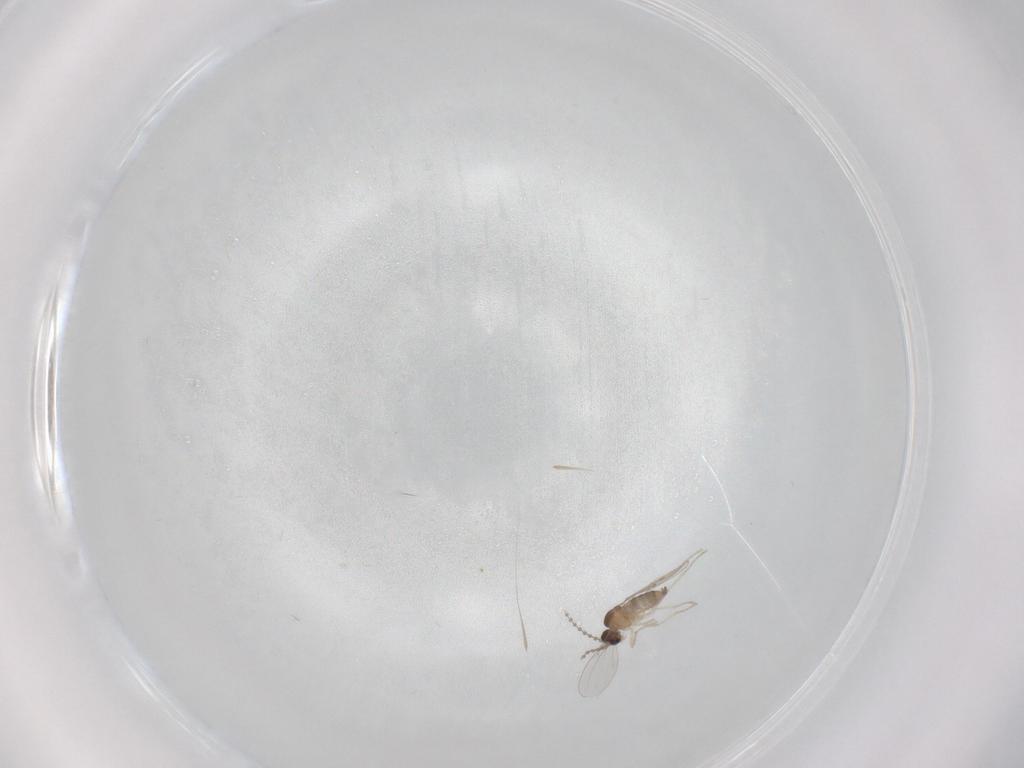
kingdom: Animalia
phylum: Arthropoda
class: Insecta
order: Diptera
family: Cecidomyiidae
